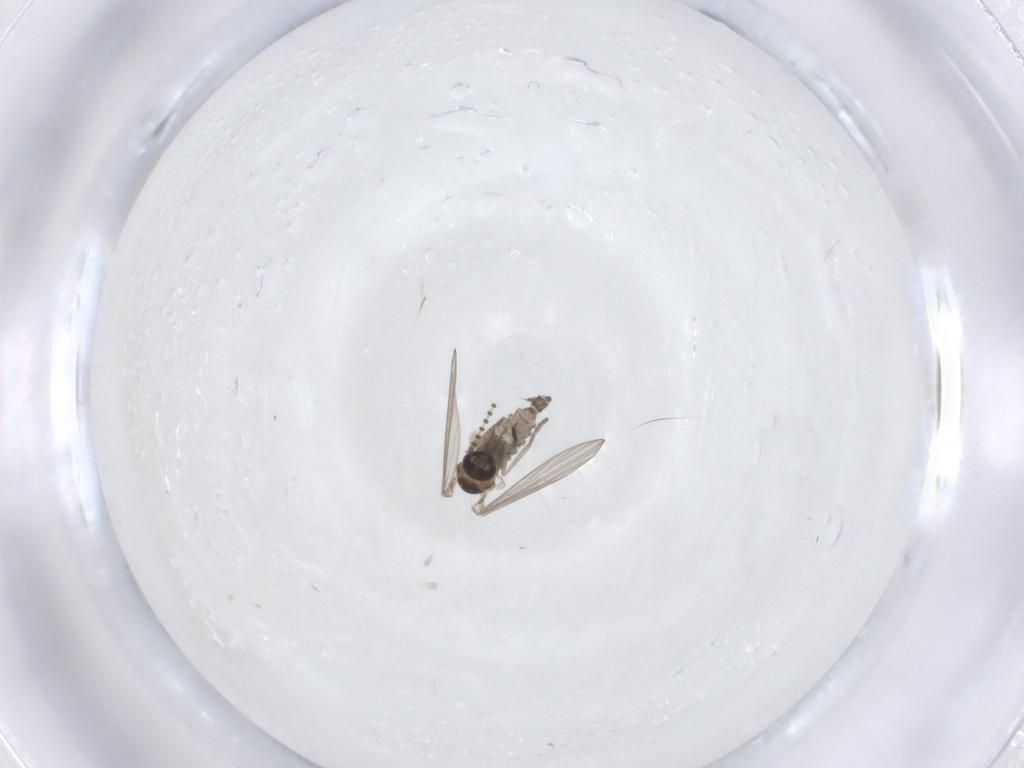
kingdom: Animalia
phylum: Arthropoda
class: Insecta
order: Diptera
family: Psychodidae
